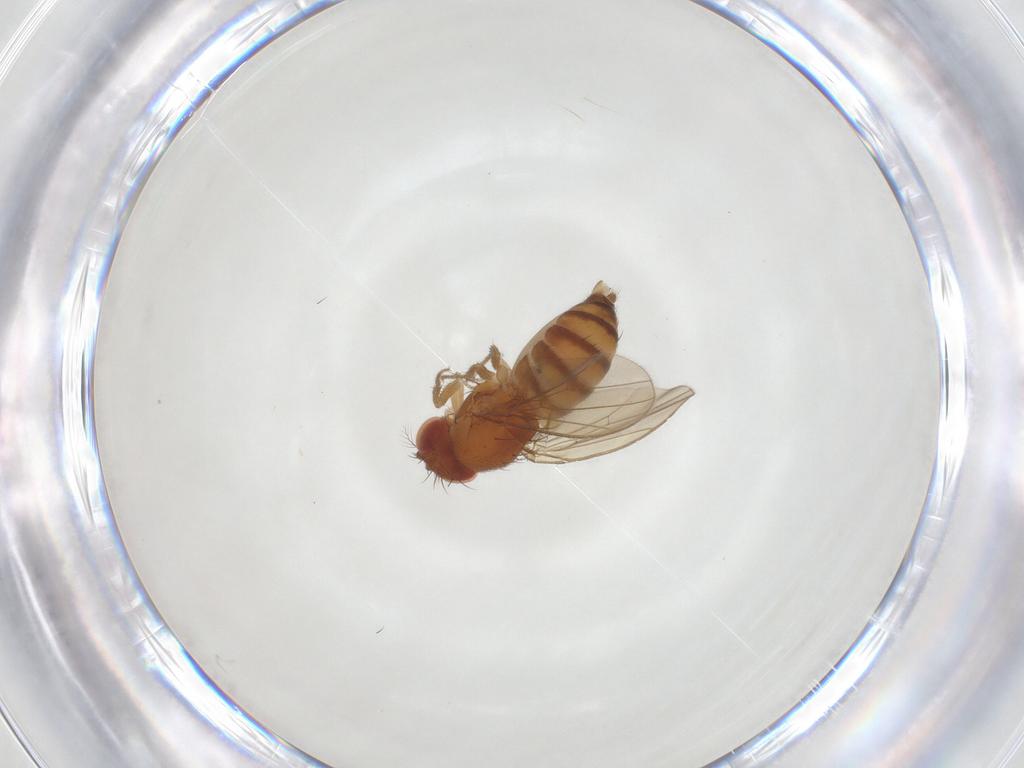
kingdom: Animalia
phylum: Arthropoda
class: Insecta
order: Diptera
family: Drosophilidae
